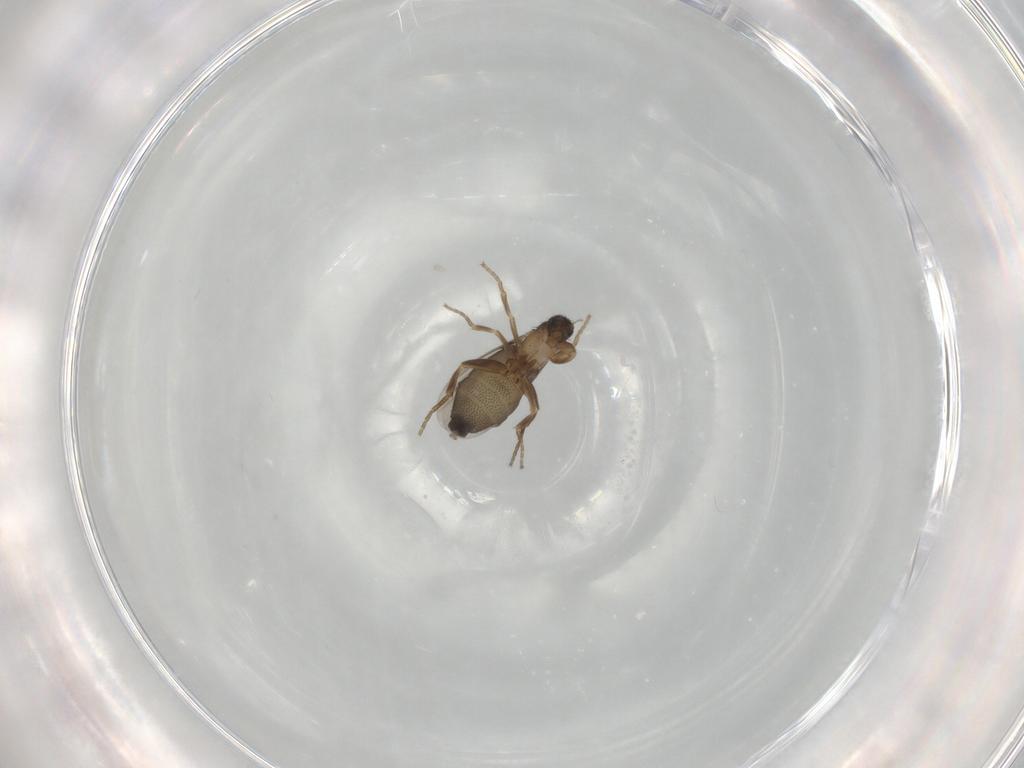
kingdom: Animalia
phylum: Arthropoda
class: Insecta
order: Diptera
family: Phoridae
